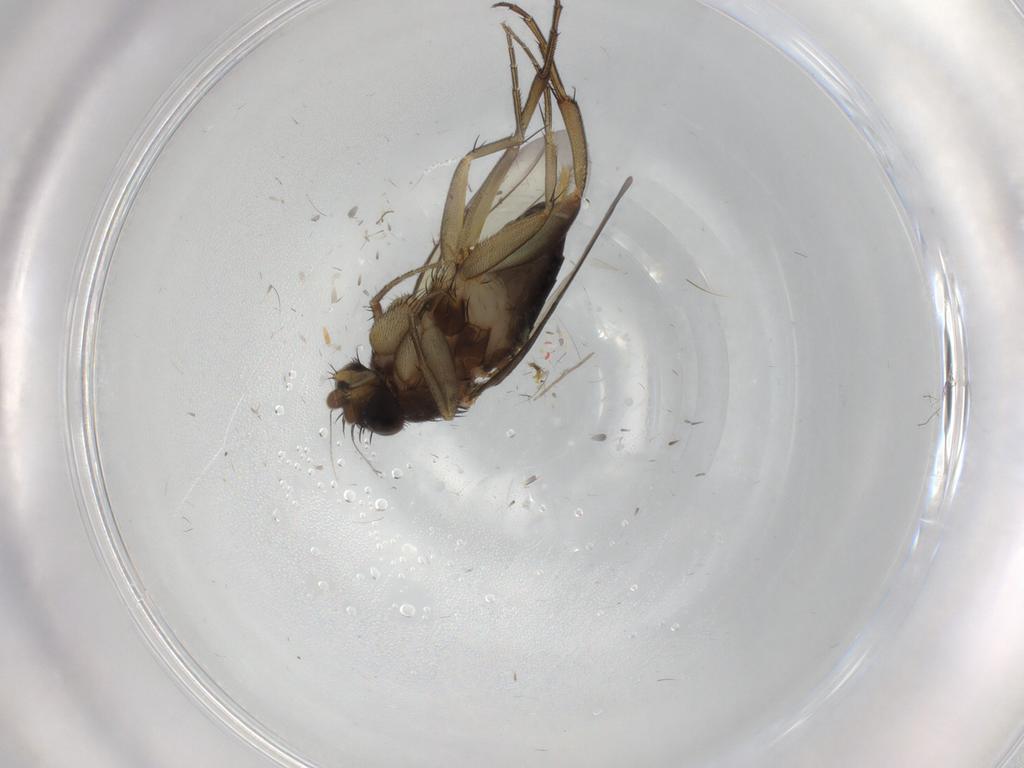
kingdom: Animalia
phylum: Arthropoda
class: Insecta
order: Diptera
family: Phoridae
